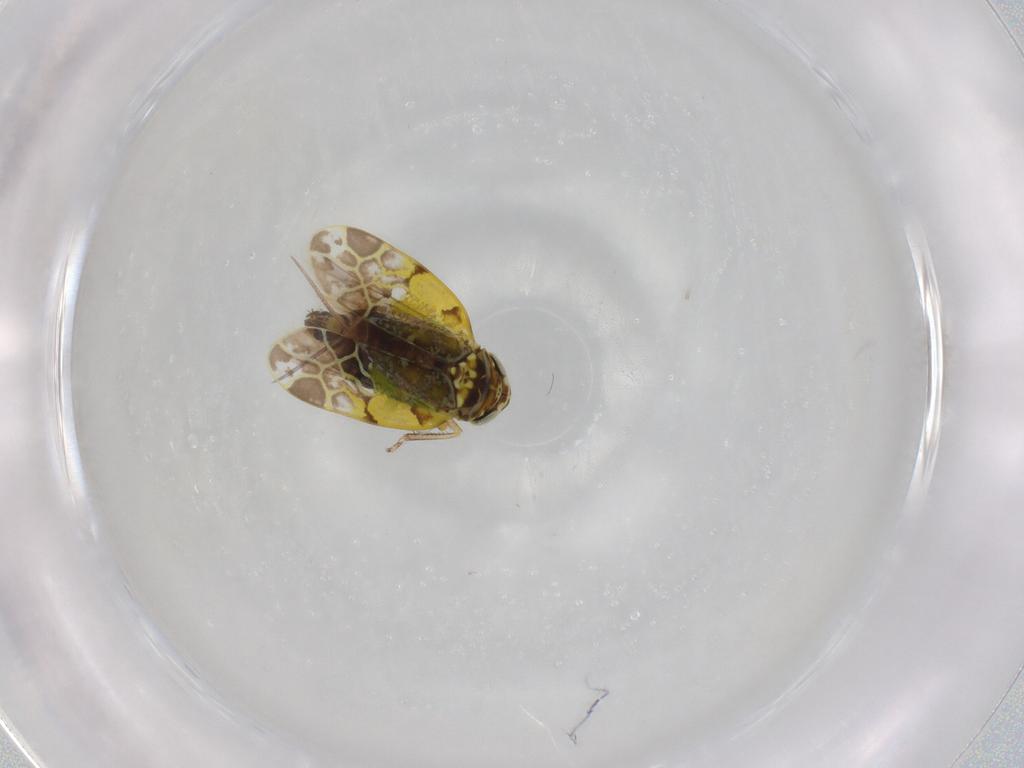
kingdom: Animalia
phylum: Arthropoda
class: Insecta
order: Hemiptera
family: Cicadellidae
